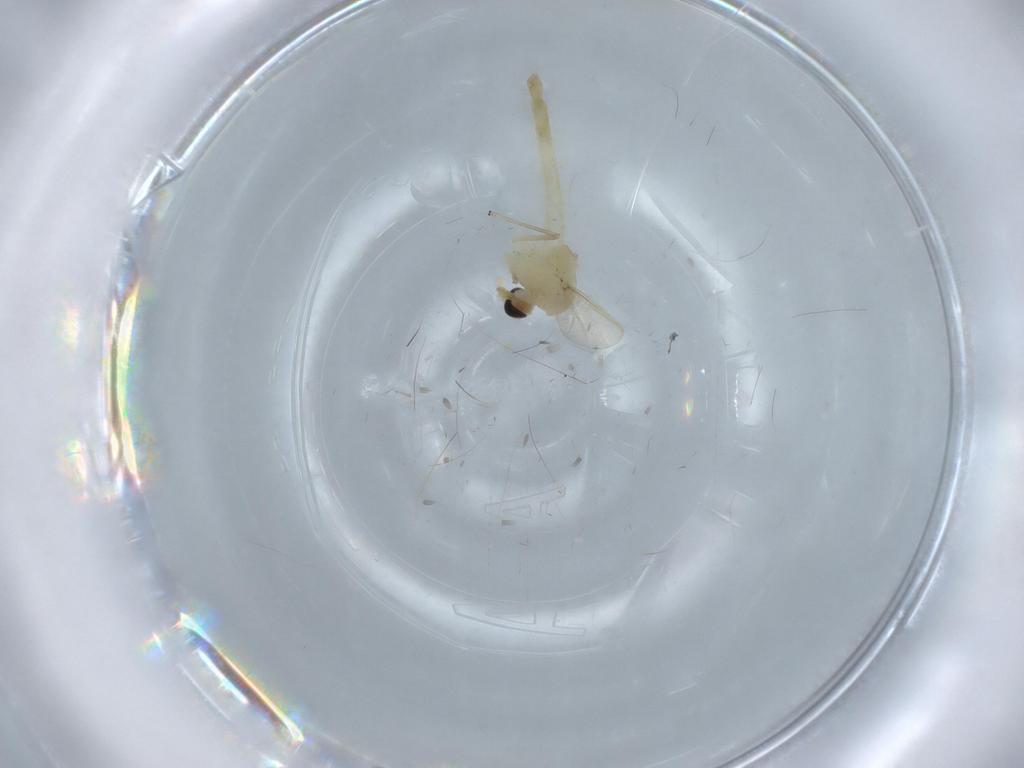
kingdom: Animalia
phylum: Arthropoda
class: Insecta
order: Diptera
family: Chironomidae
